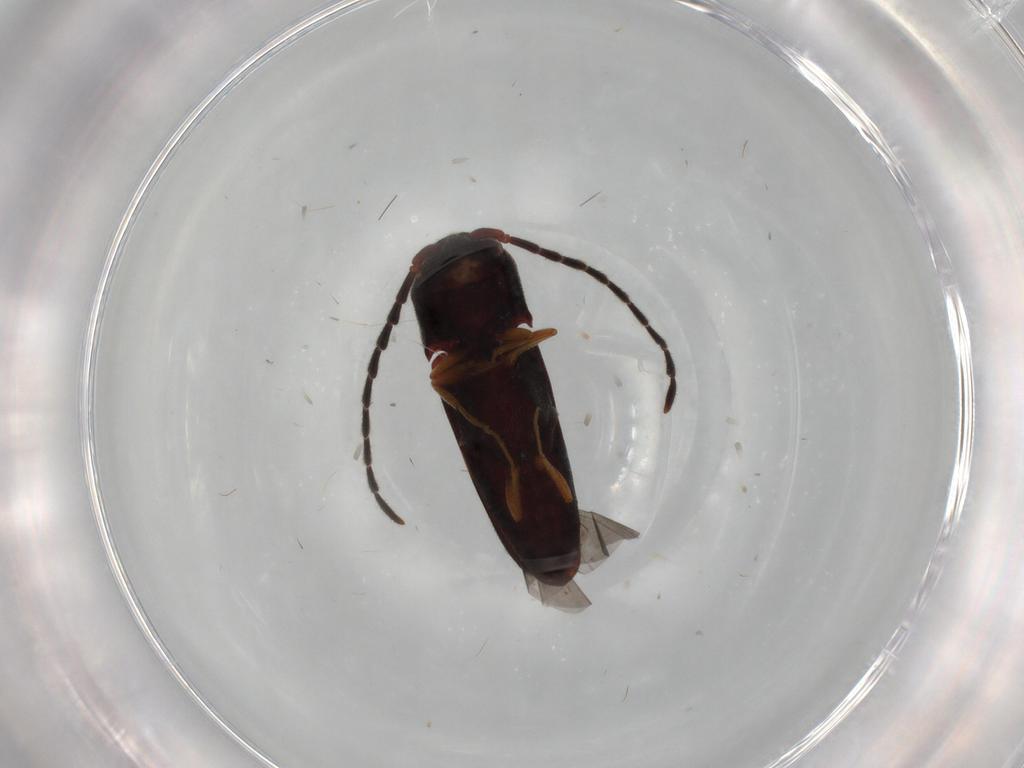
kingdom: Animalia
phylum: Arthropoda
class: Insecta
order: Coleoptera
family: Eucnemidae
